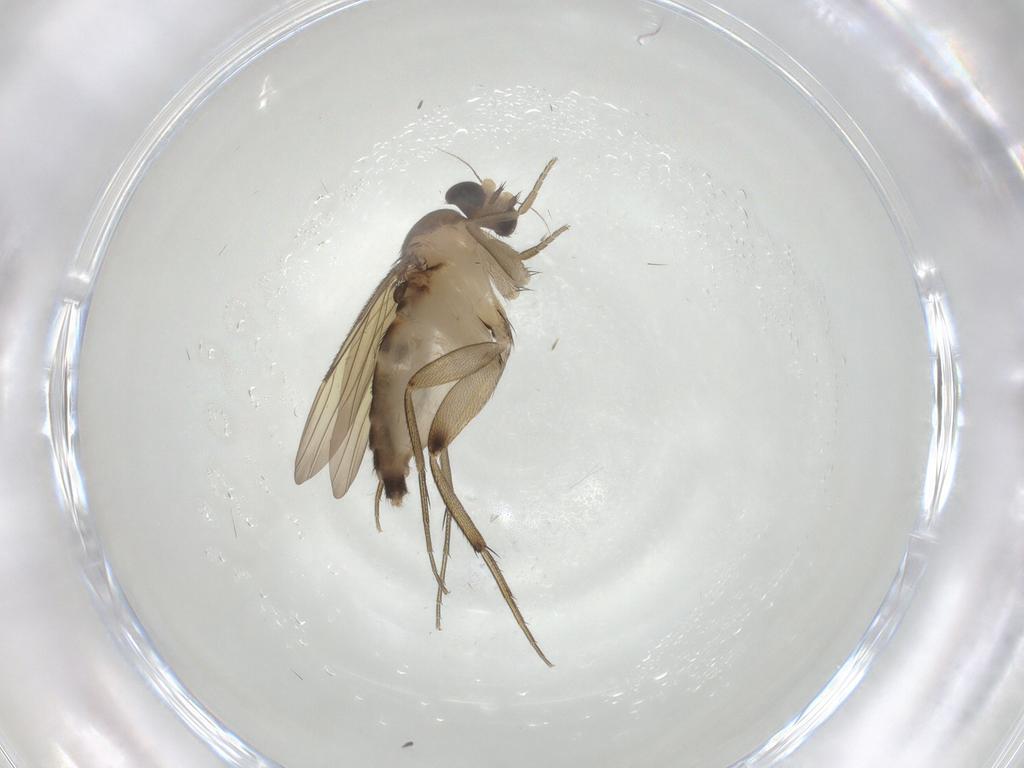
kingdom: Animalia
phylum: Arthropoda
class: Insecta
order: Diptera
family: Phoridae
